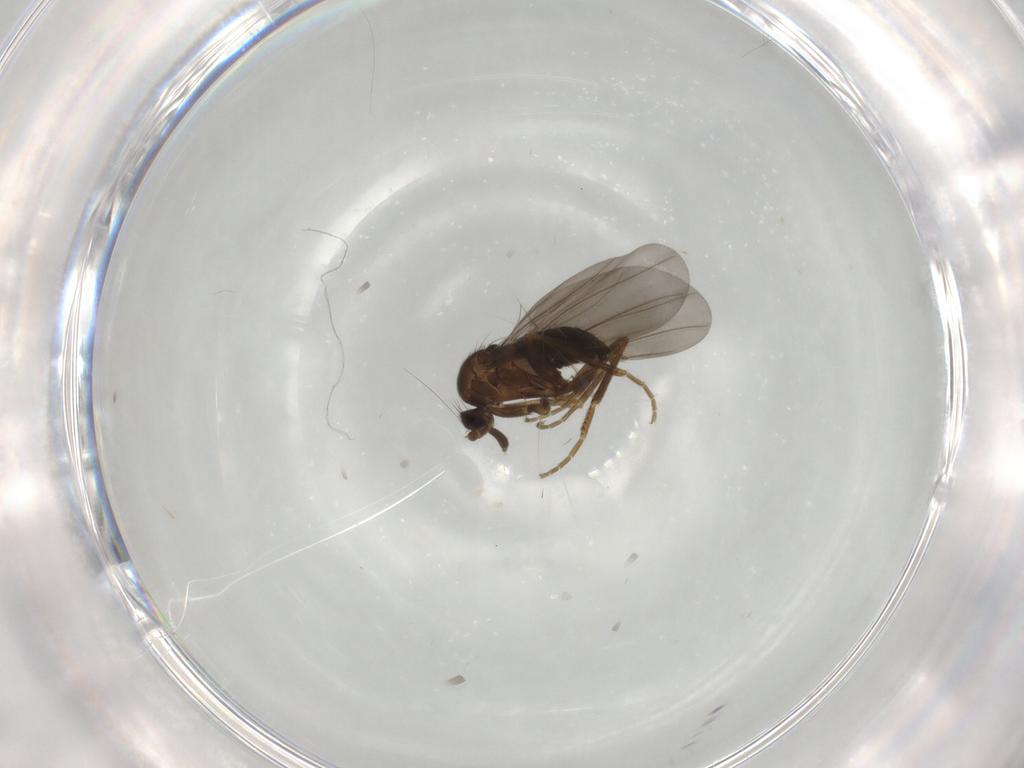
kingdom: Animalia
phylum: Arthropoda
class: Insecta
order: Diptera
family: Phoridae
